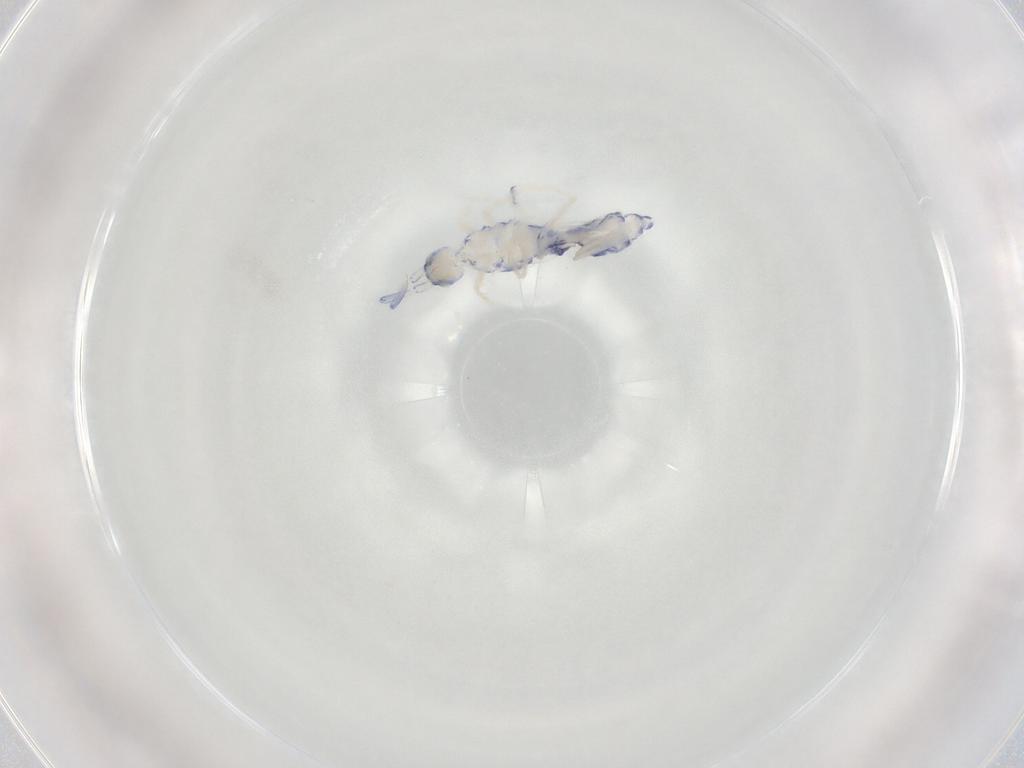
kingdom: Animalia
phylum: Arthropoda
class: Collembola
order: Entomobryomorpha
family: Entomobryidae
